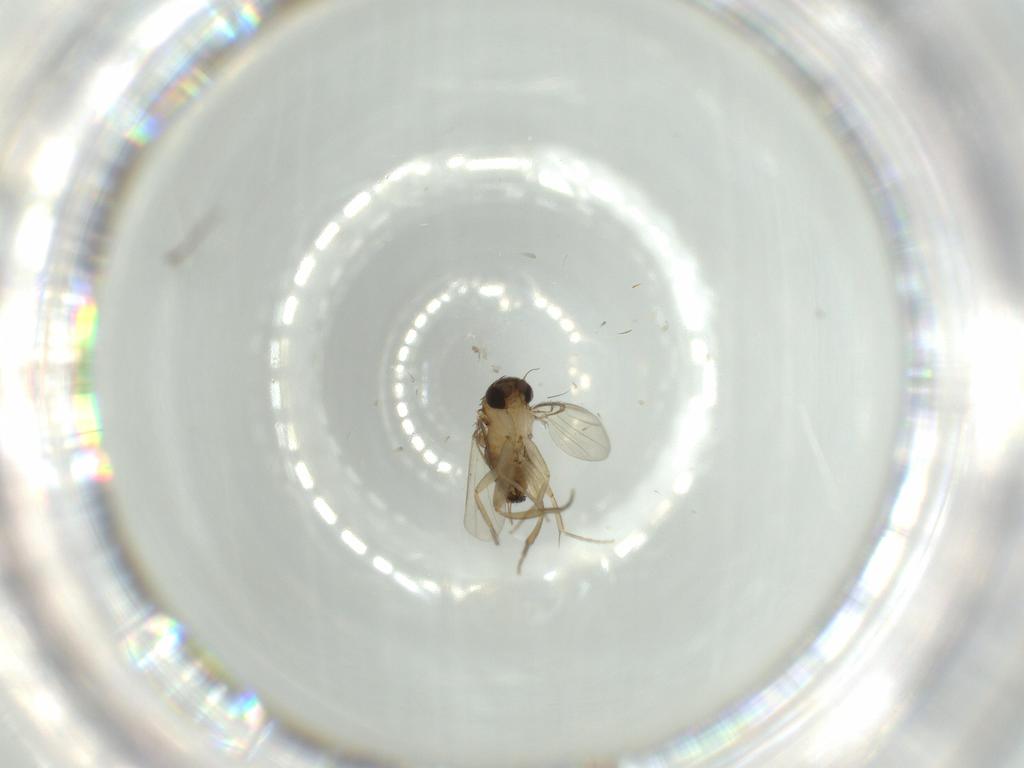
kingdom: Animalia
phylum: Arthropoda
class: Insecta
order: Diptera
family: Phoridae
